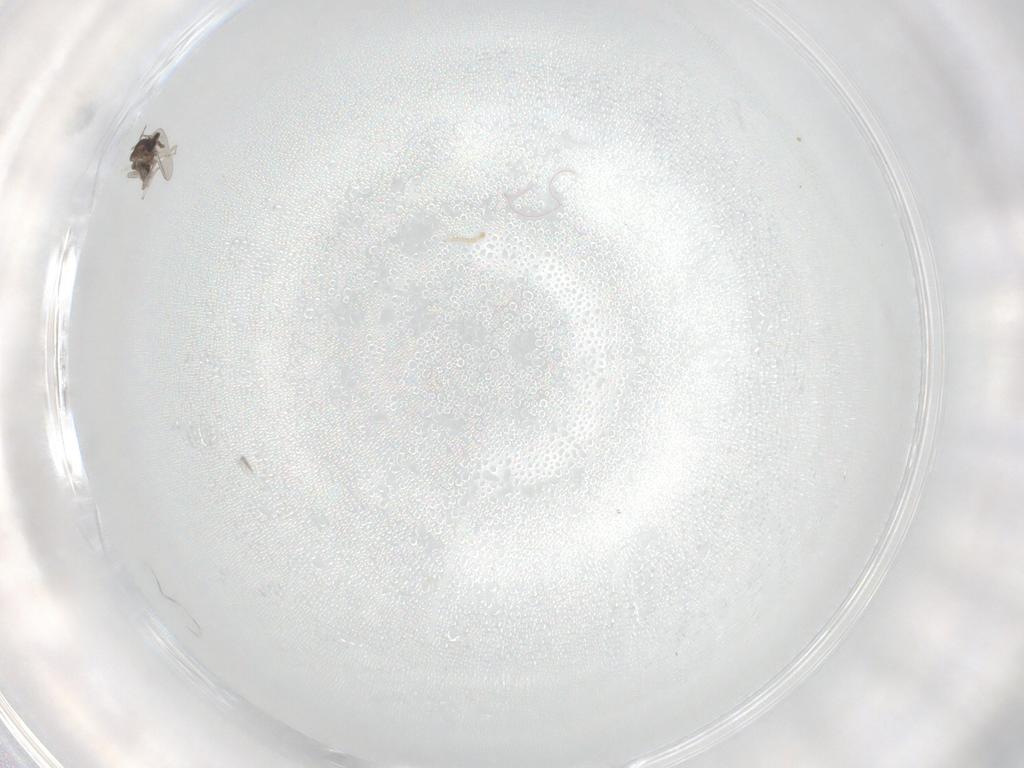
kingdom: Animalia
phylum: Arthropoda
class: Insecta
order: Diptera
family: Cecidomyiidae
